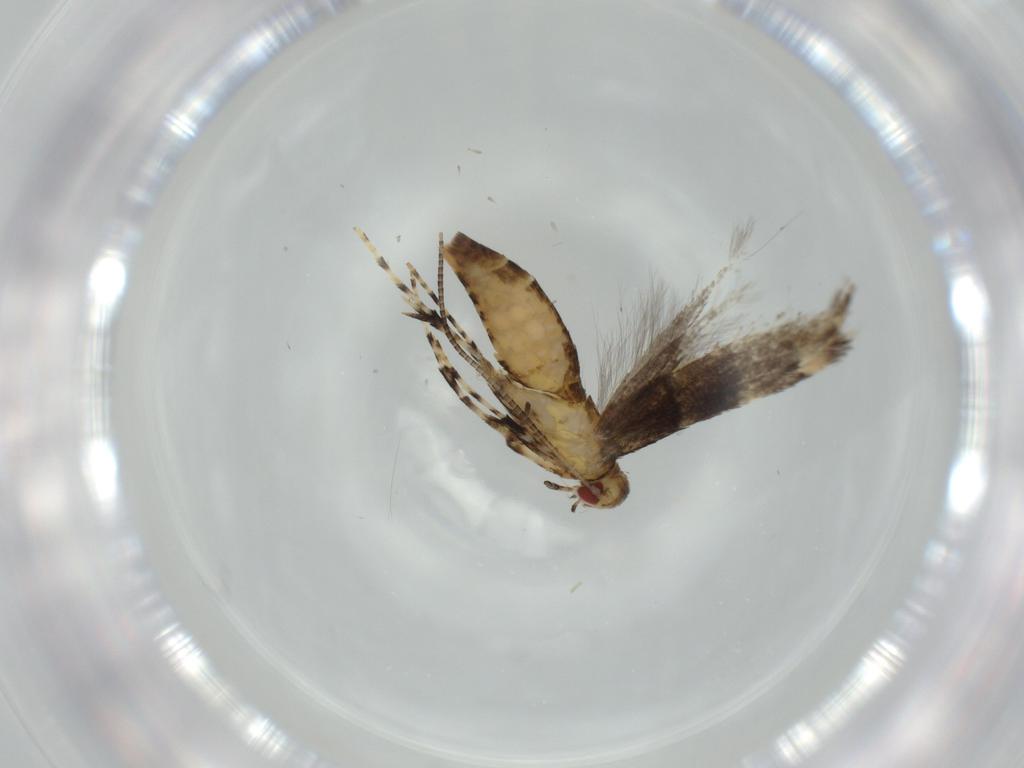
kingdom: Animalia
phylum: Arthropoda
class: Insecta
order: Lepidoptera
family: Gracillariidae
